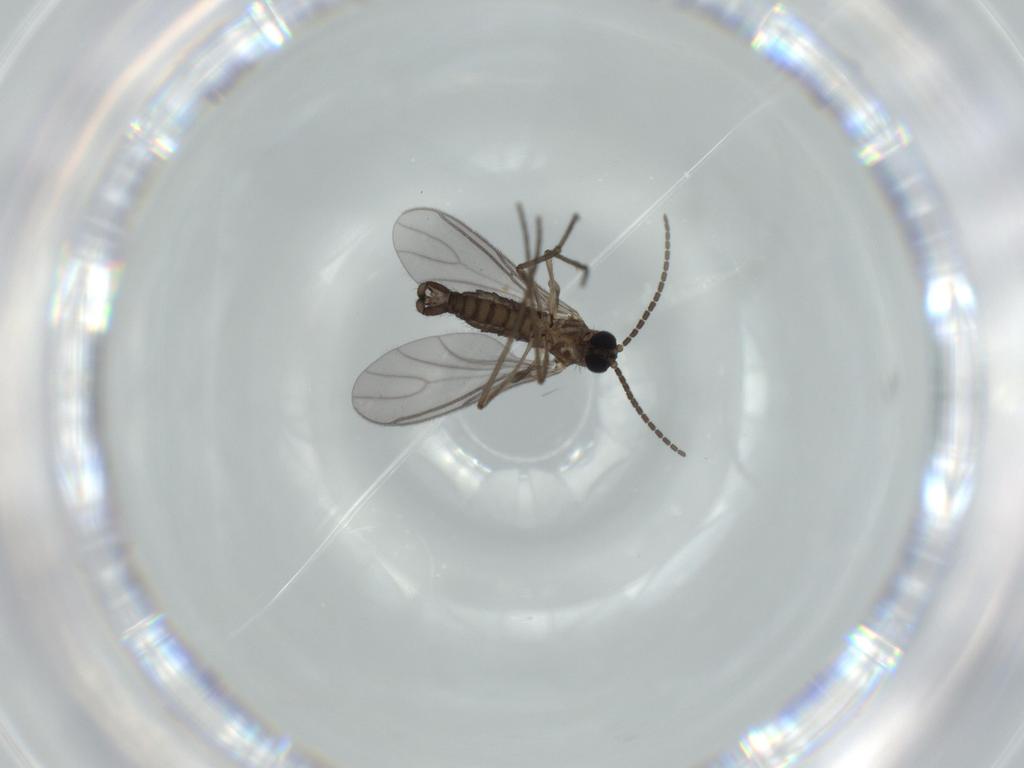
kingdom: Animalia
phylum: Arthropoda
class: Insecta
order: Diptera
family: Sciaridae
